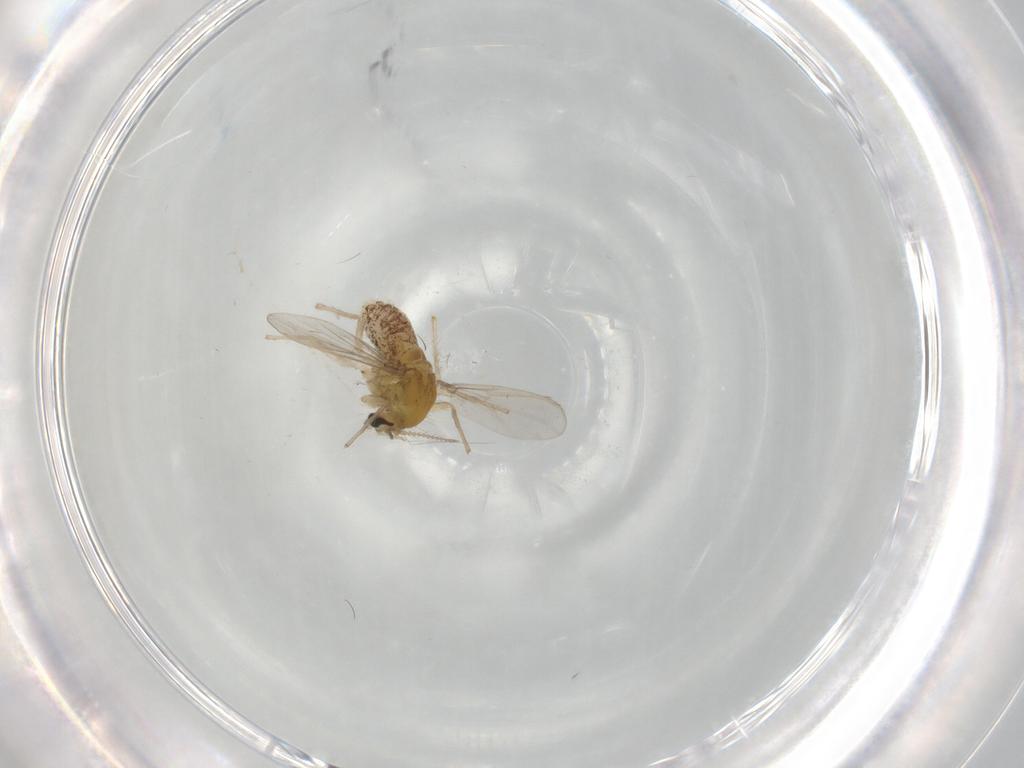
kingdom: Animalia
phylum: Arthropoda
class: Insecta
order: Diptera
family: Chironomidae
